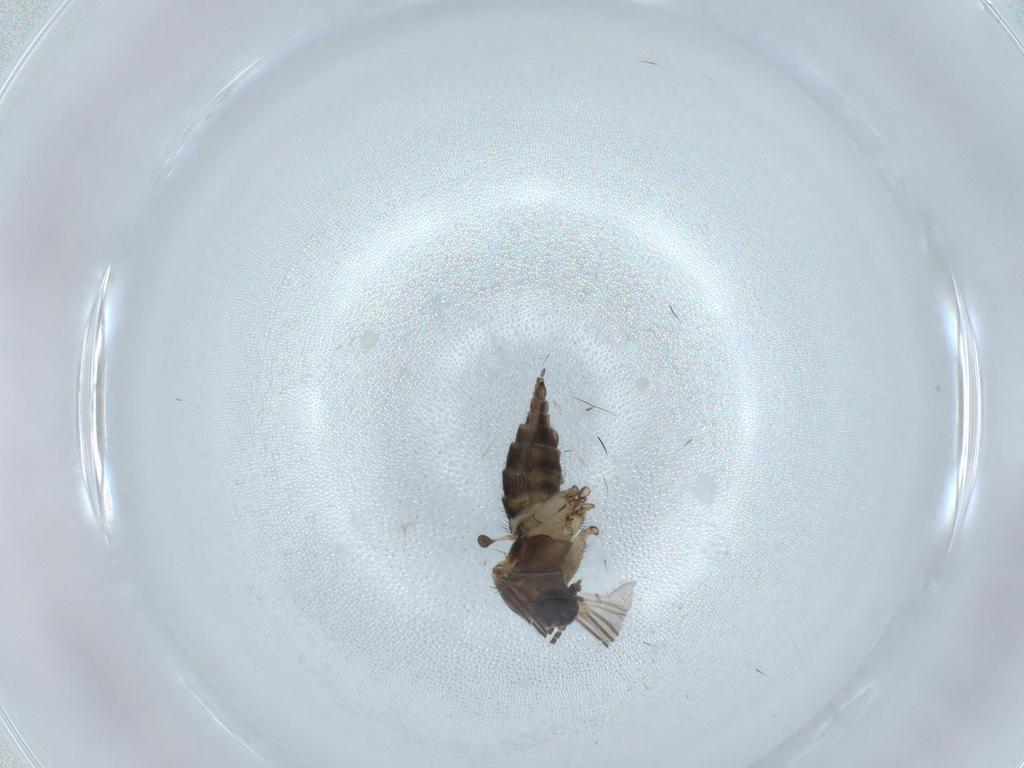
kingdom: Animalia
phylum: Arthropoda
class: Insecta
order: Diptera
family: Sciaridae
